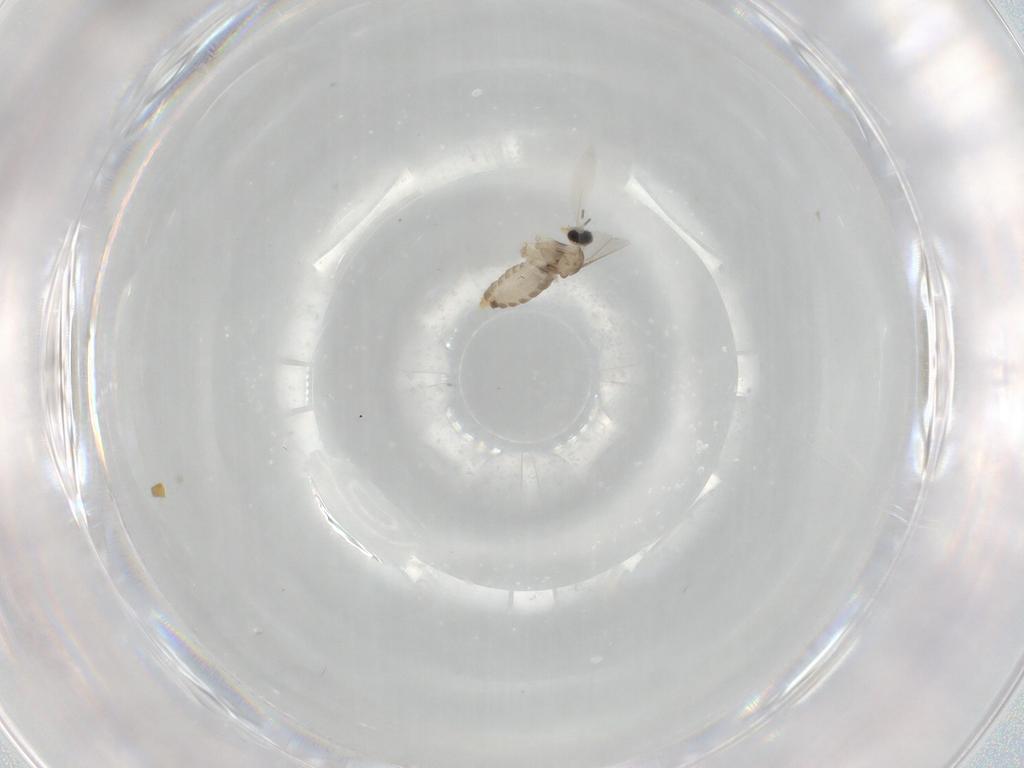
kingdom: Animalia
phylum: Arthropoda
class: Insecta
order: Diptera
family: Cecidomyiidae
